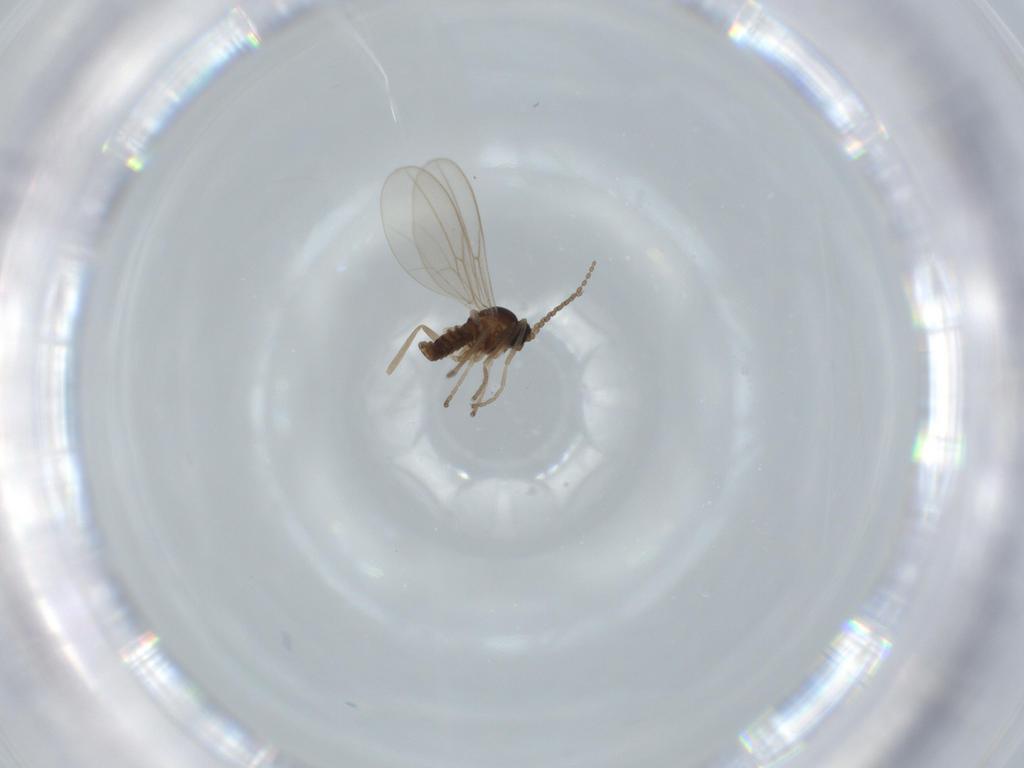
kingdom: Animalia
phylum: Arthropoda
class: Insecta
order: Diptera
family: Cecidomyiidae
